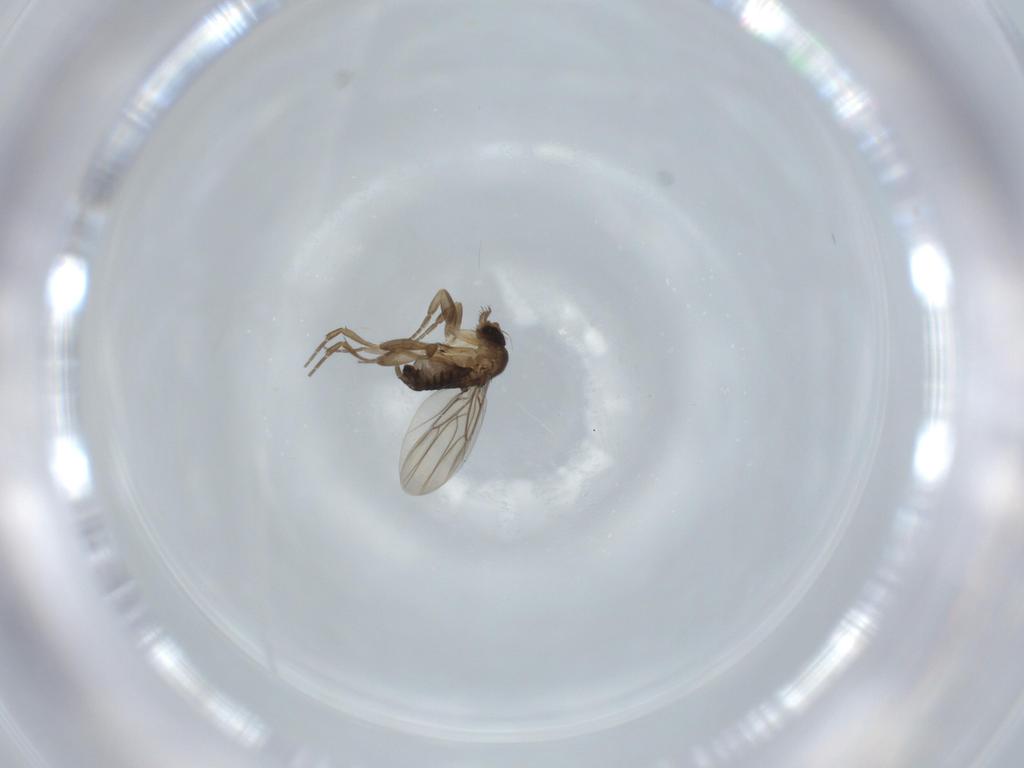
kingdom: Animalia
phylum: Arthropoda
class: Insecta
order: Diptera
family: Phoridae
